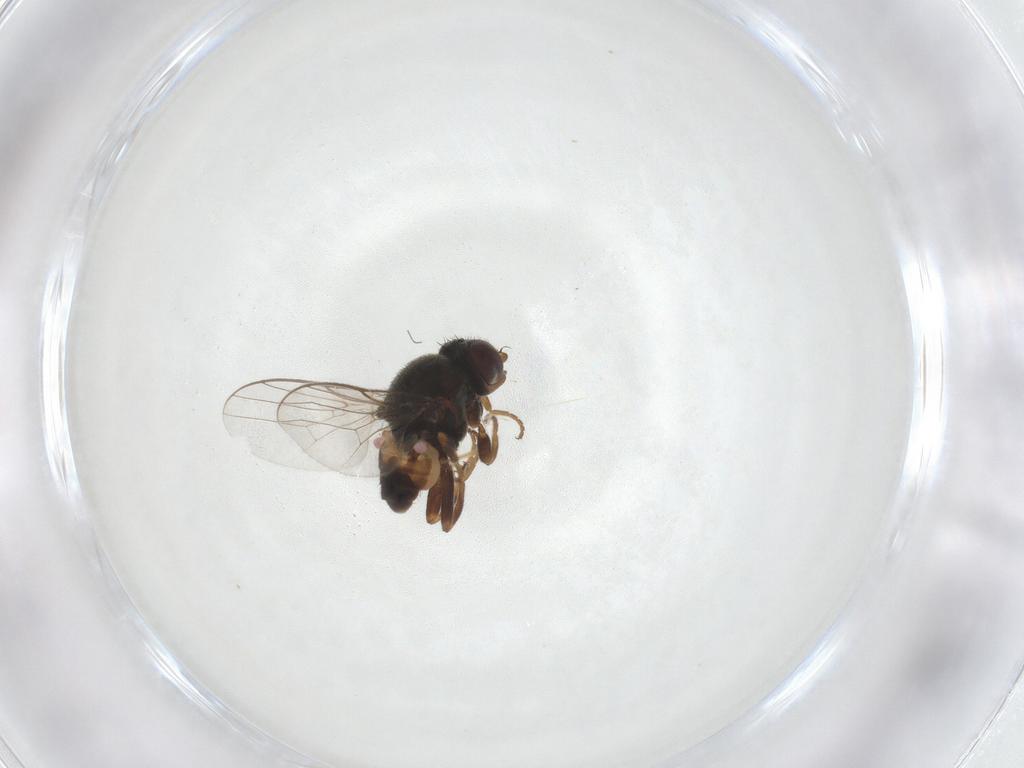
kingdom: Animalia
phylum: Arthropoda
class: Insecta
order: Diptera
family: Chloropidae
